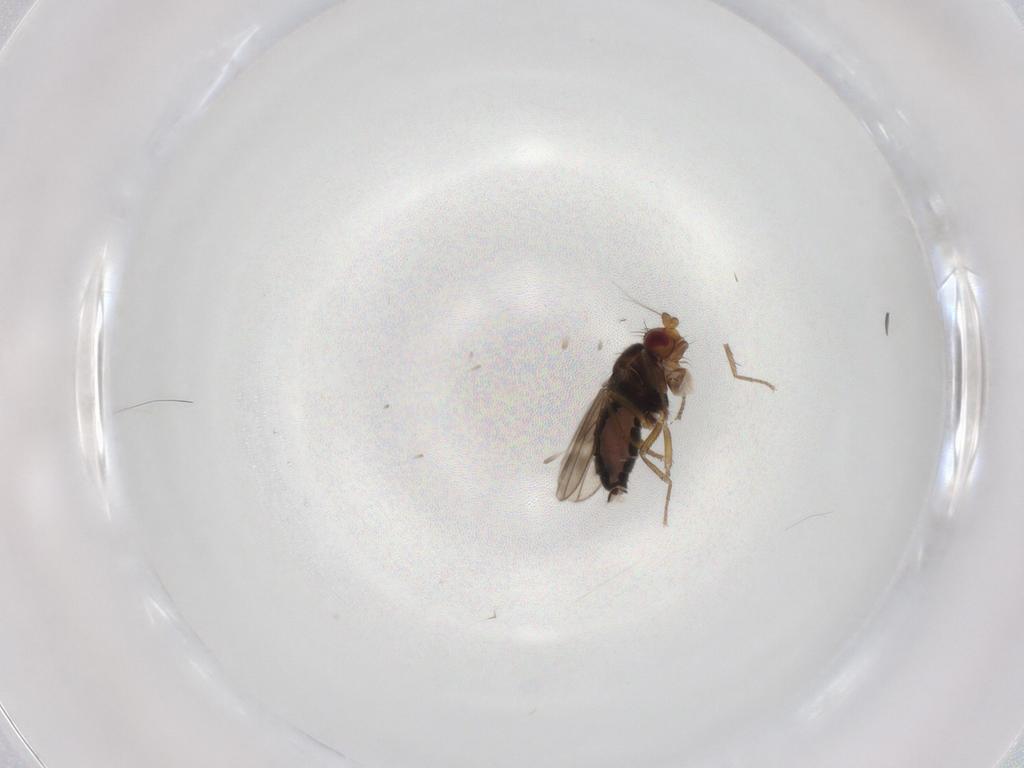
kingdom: Animalia
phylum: Arthropoda
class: Insecta
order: Diptera
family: Sphaeroceridae
